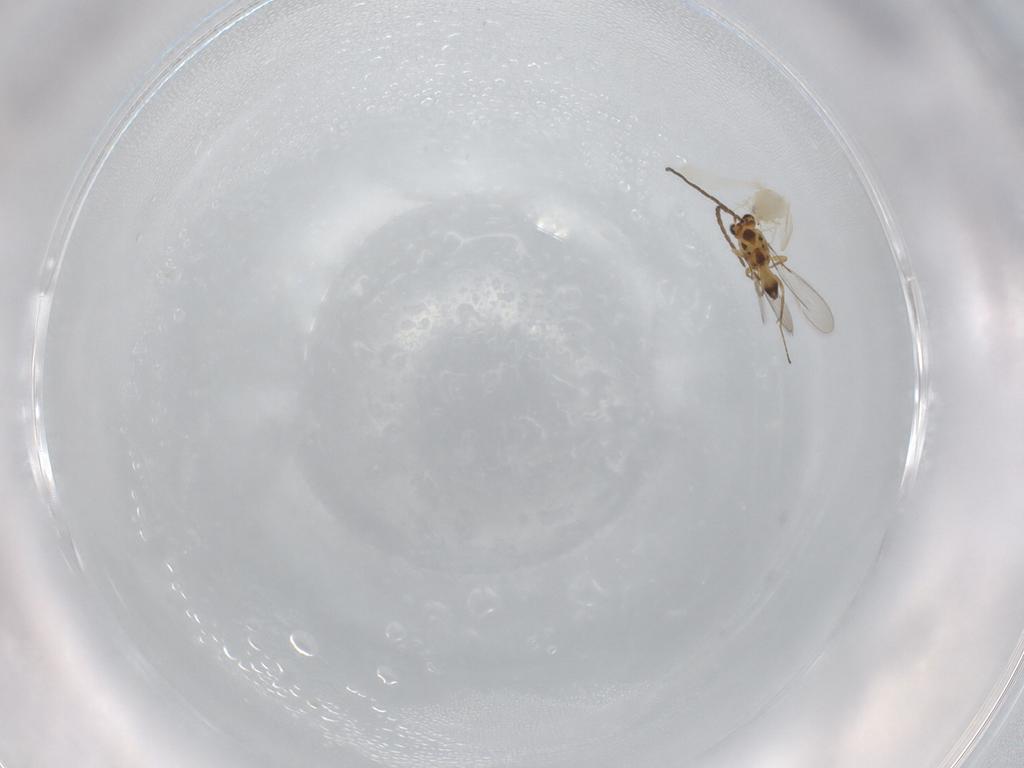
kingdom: Animalia
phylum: Arthropoda
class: Insecta
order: Hymenoptera
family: Mymaridae
